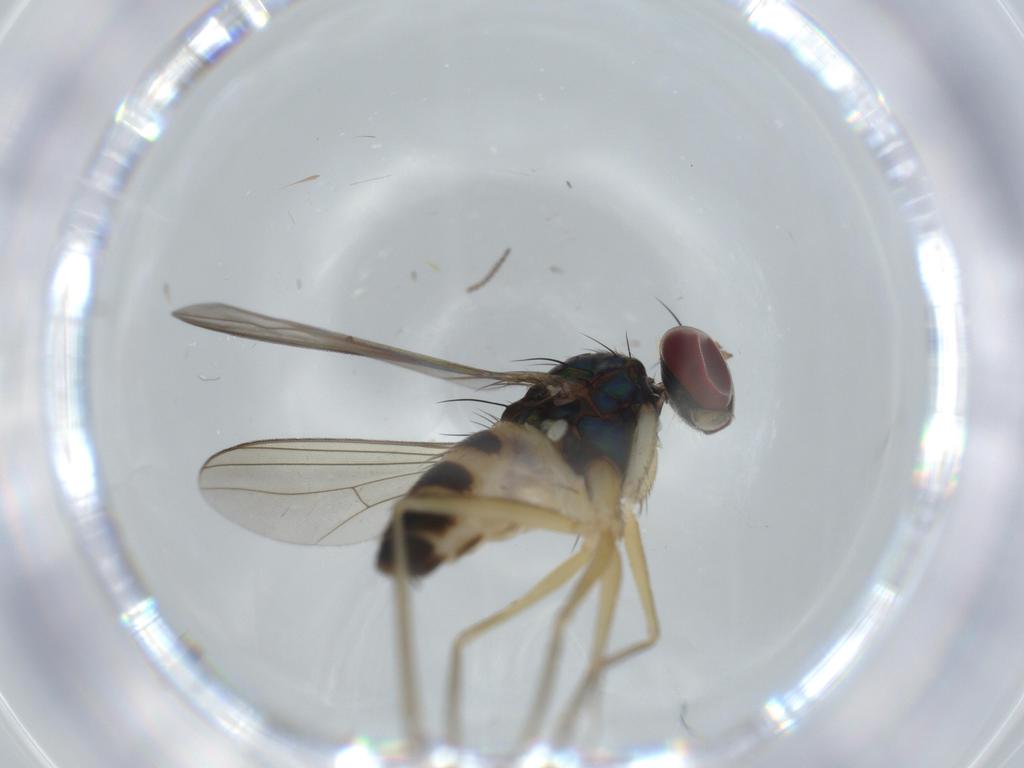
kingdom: Animalia
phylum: Arthropoda
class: Insecta
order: Diptera
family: Dolichopodidae
